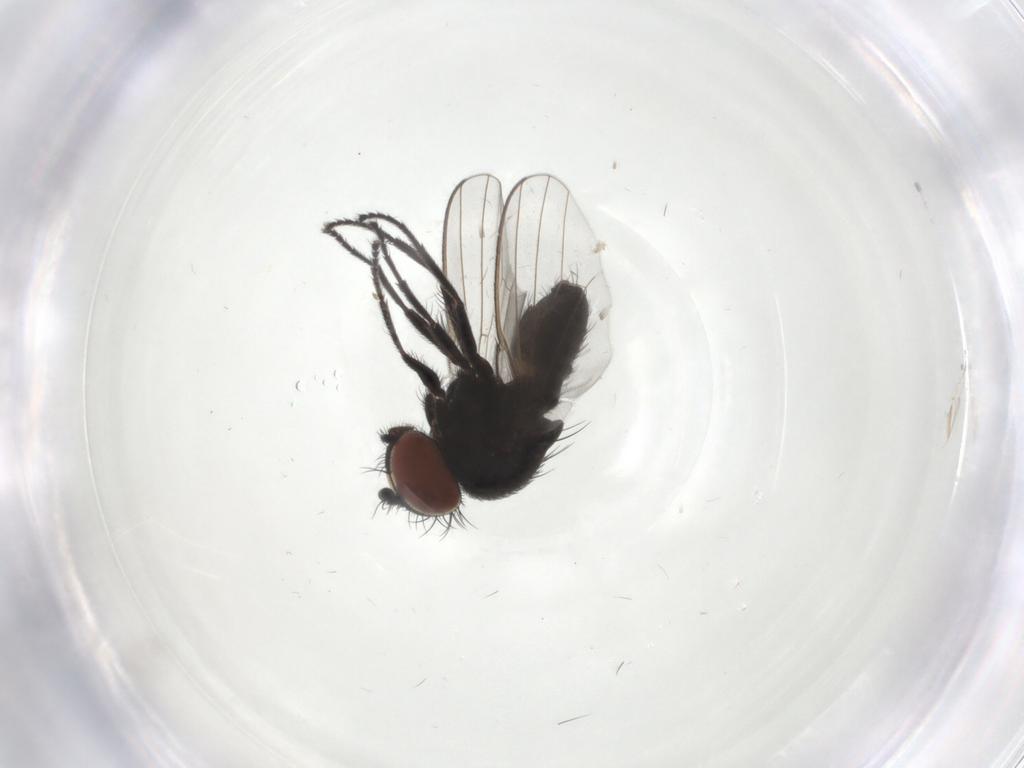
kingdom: Animalia
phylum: Arthropoda
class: Insecta
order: Diptera
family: Milichiidae
